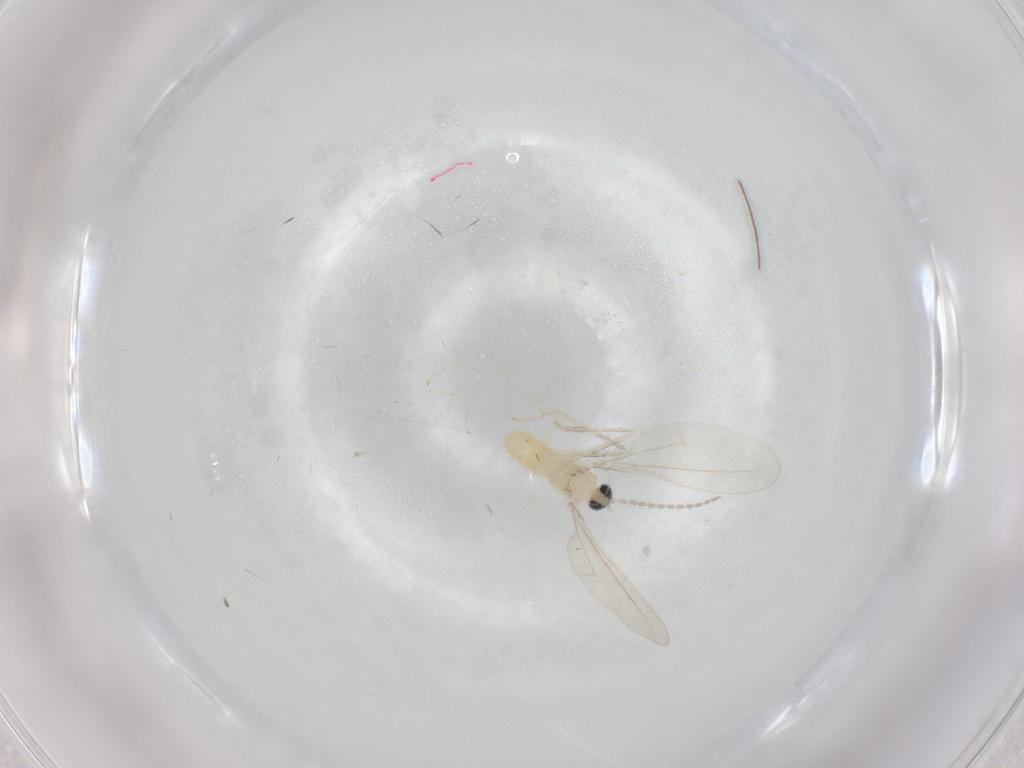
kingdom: Animalia
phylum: Arthropoda
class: Insecta
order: Diptera
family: Cecidomyiidae
